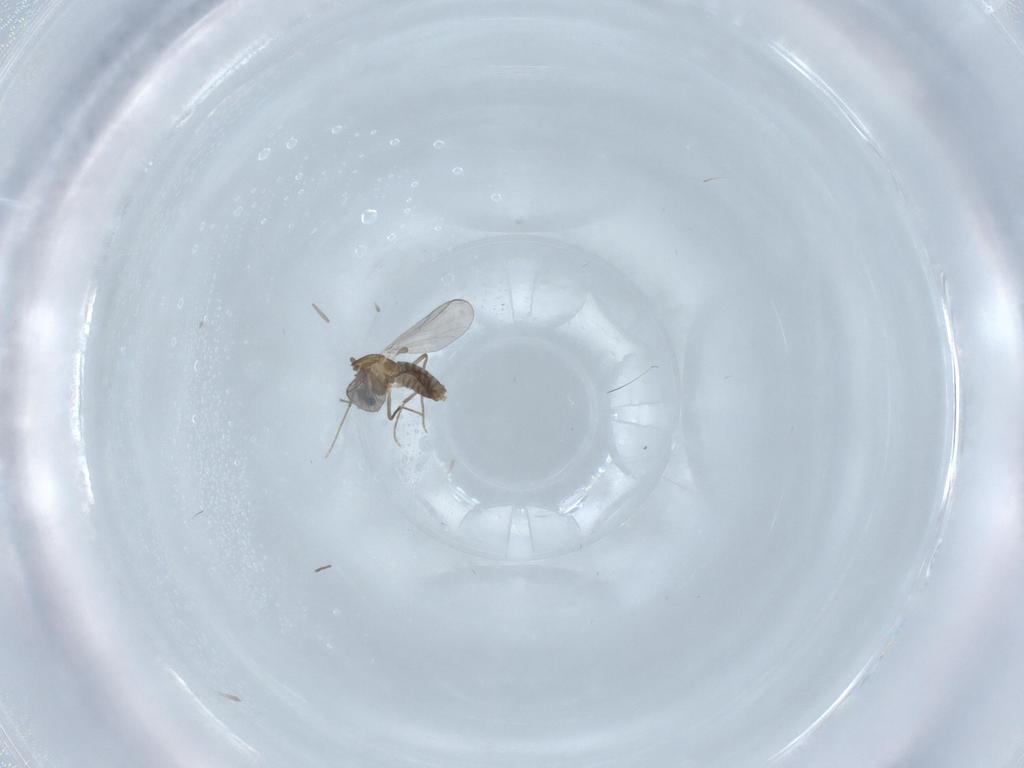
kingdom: Animalia
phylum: Arthropoda
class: Insecta
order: Diptera
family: Chironomidae
